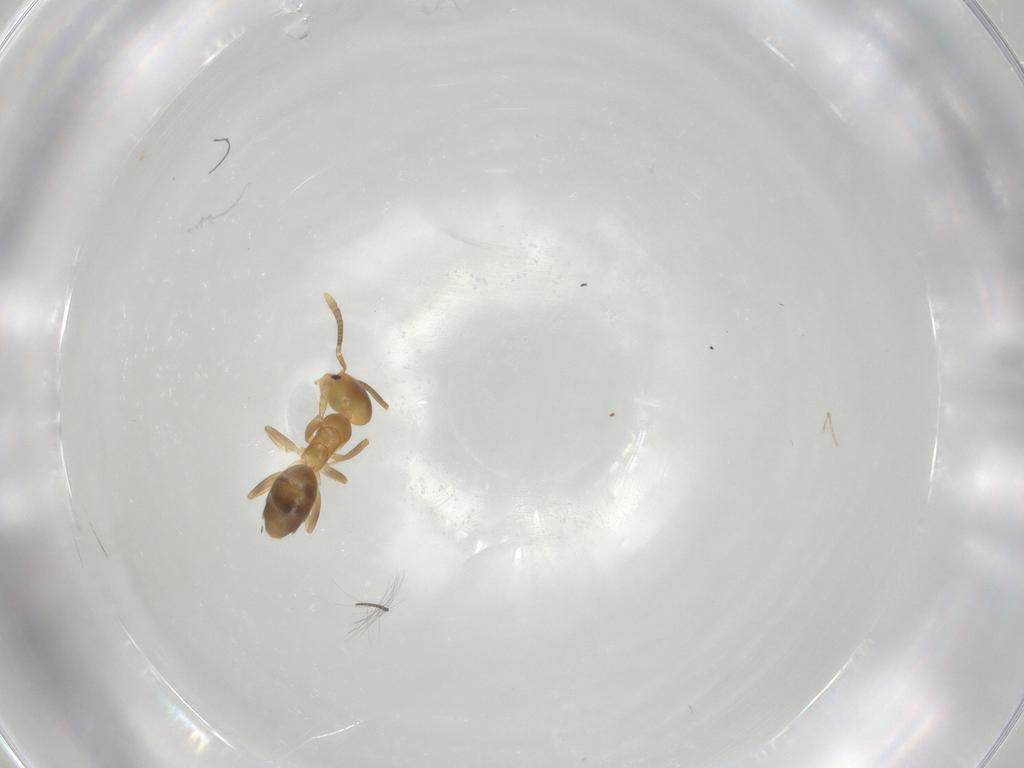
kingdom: Animalia
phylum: Arthropoda
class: Insecta
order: Hymenoptera
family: Formicidae
